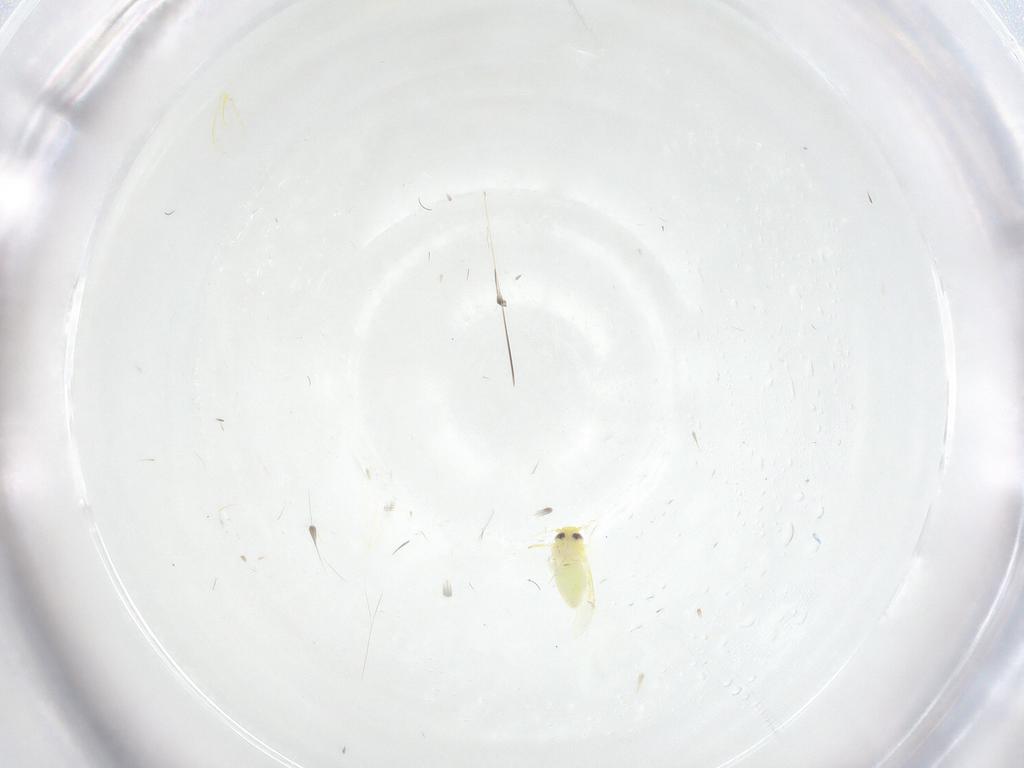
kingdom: Animalia
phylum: Arthropoda
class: Insecta
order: Hemiptera
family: Aleyrodidae
